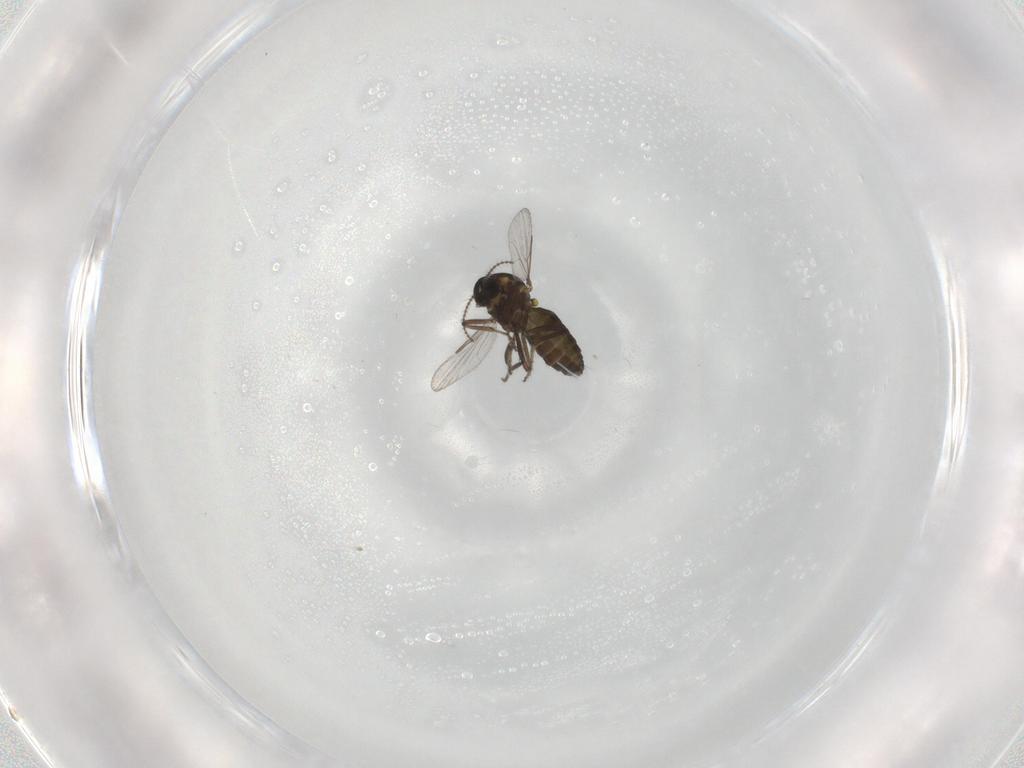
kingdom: Animalia
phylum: Arthropoda
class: Insecta
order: Diptera
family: Ceratopogonidae
